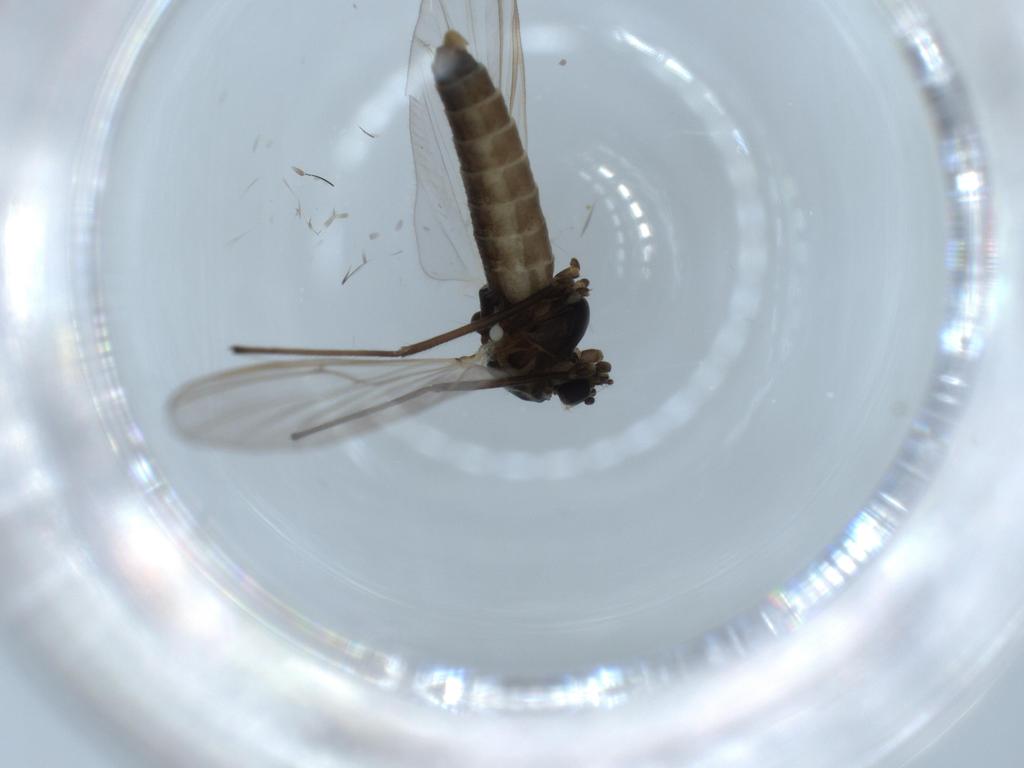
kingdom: Animalia
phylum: Arthropoda
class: Insecta
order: Diptera
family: Chironomidae
